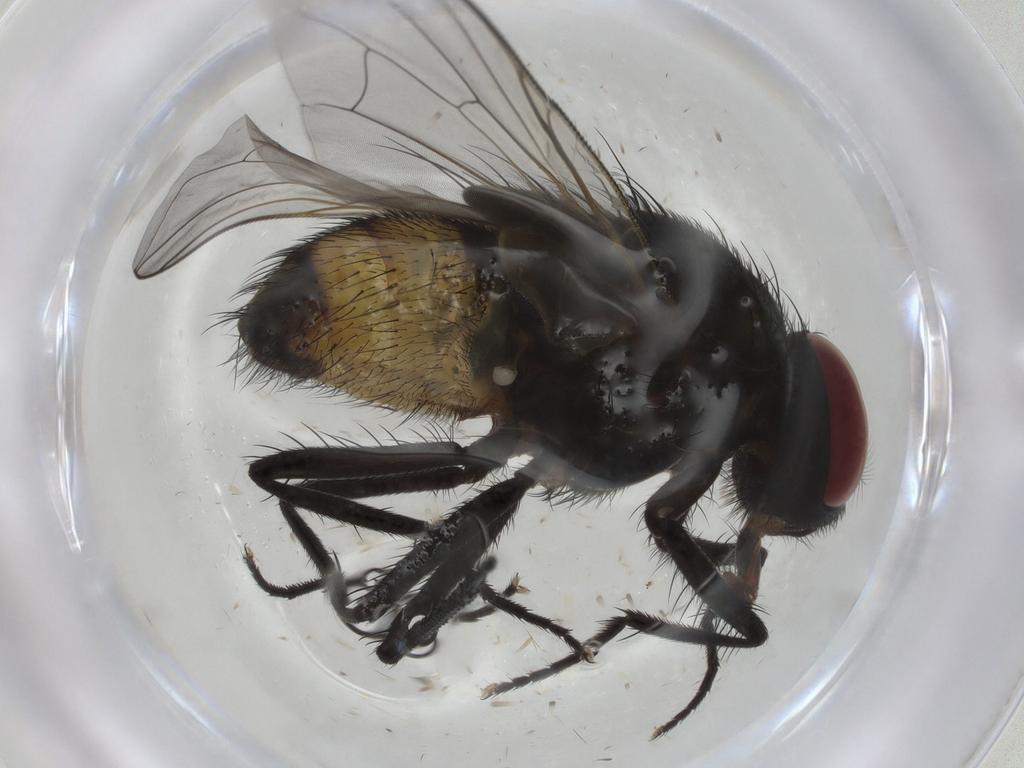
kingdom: Animalia
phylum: Arthropoda
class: Insecta
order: Diptera
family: Muscidae
